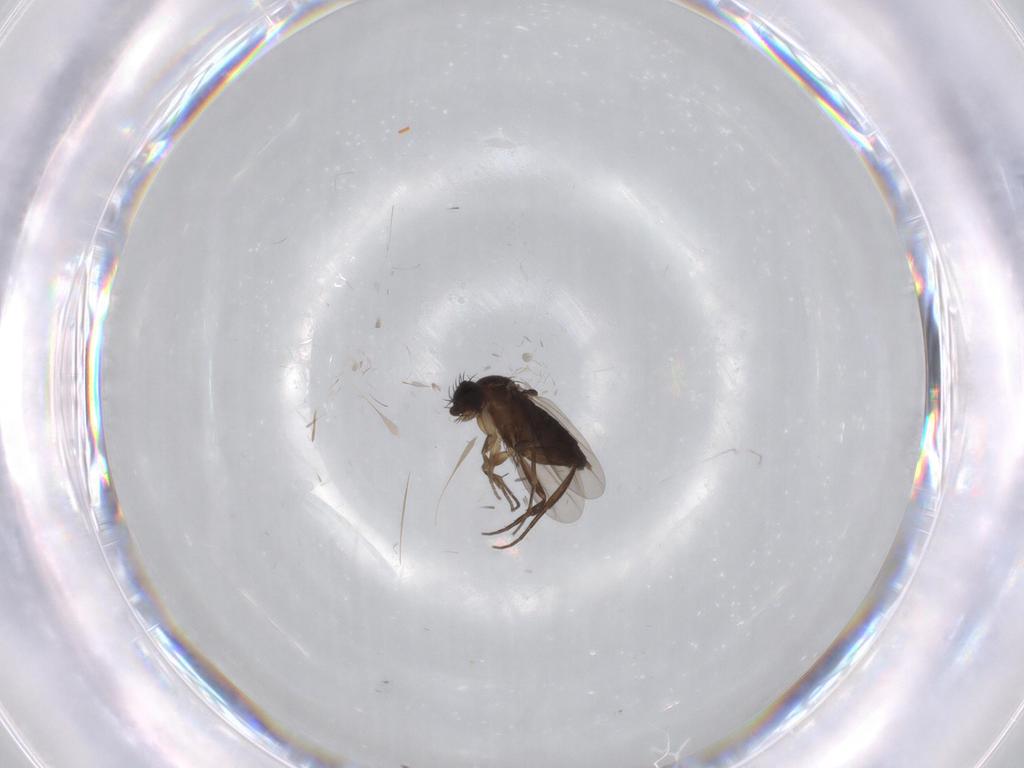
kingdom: Animalia
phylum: Arthropoda
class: Insecta
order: Diptera
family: Phoridae
